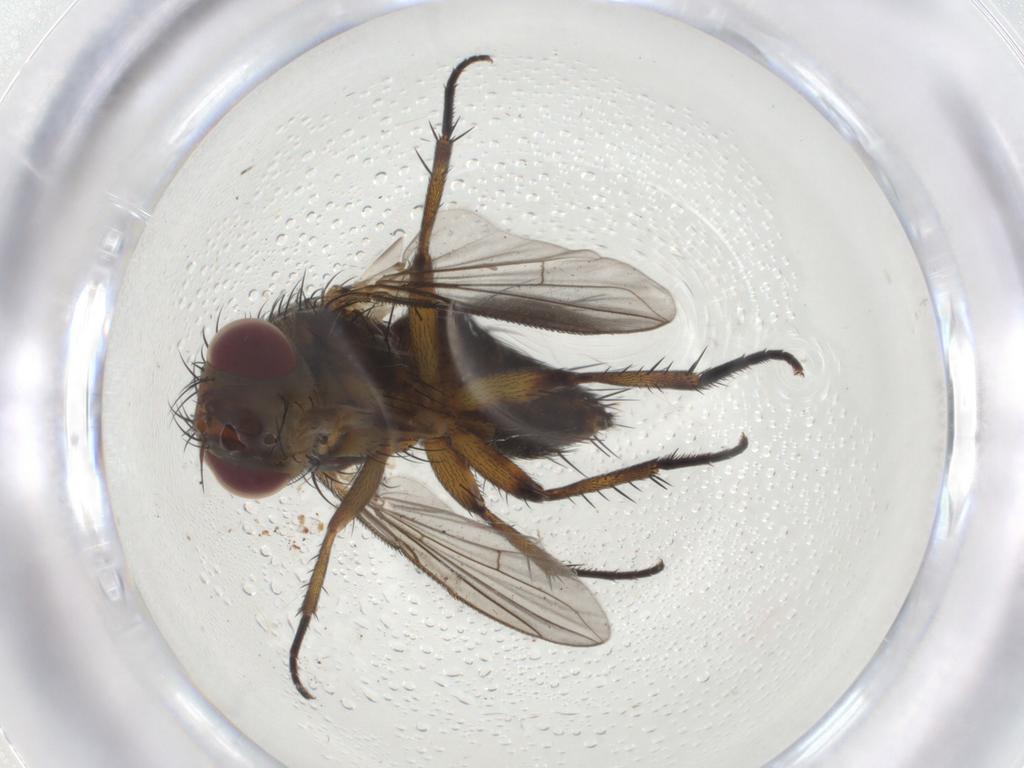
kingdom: Animalia
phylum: Arthropoda
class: Insecta
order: Diptera
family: Tachinidae
